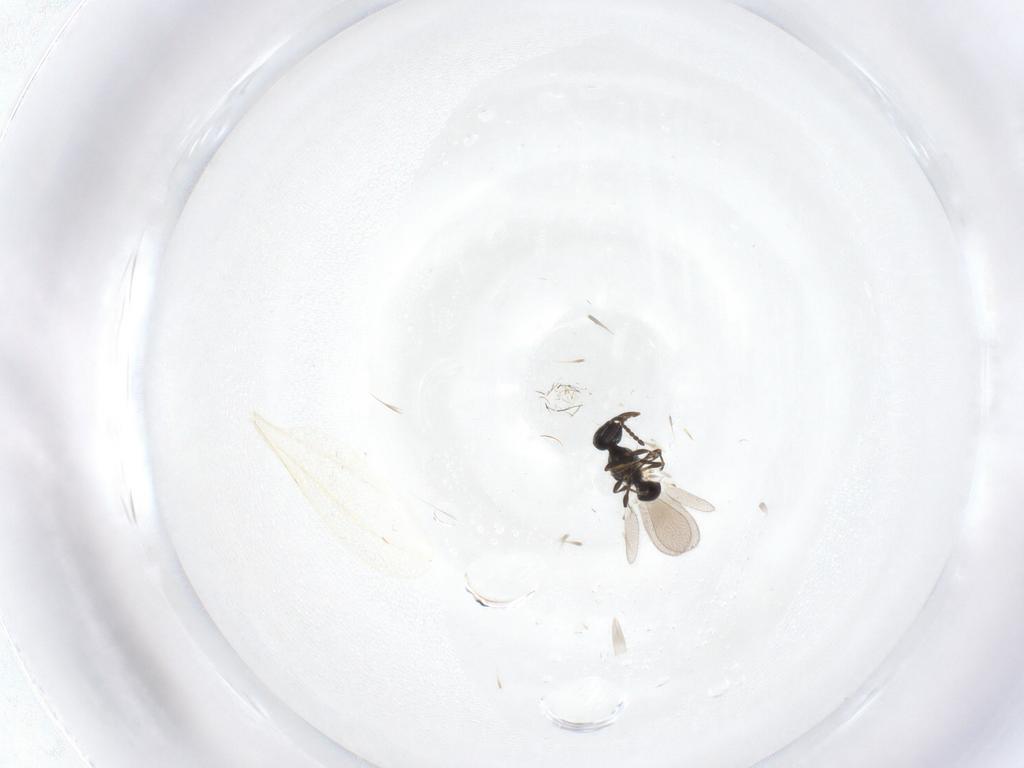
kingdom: Animalia
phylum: Arthropoda
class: Insecta
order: Hymenoptera
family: Platygastridae
